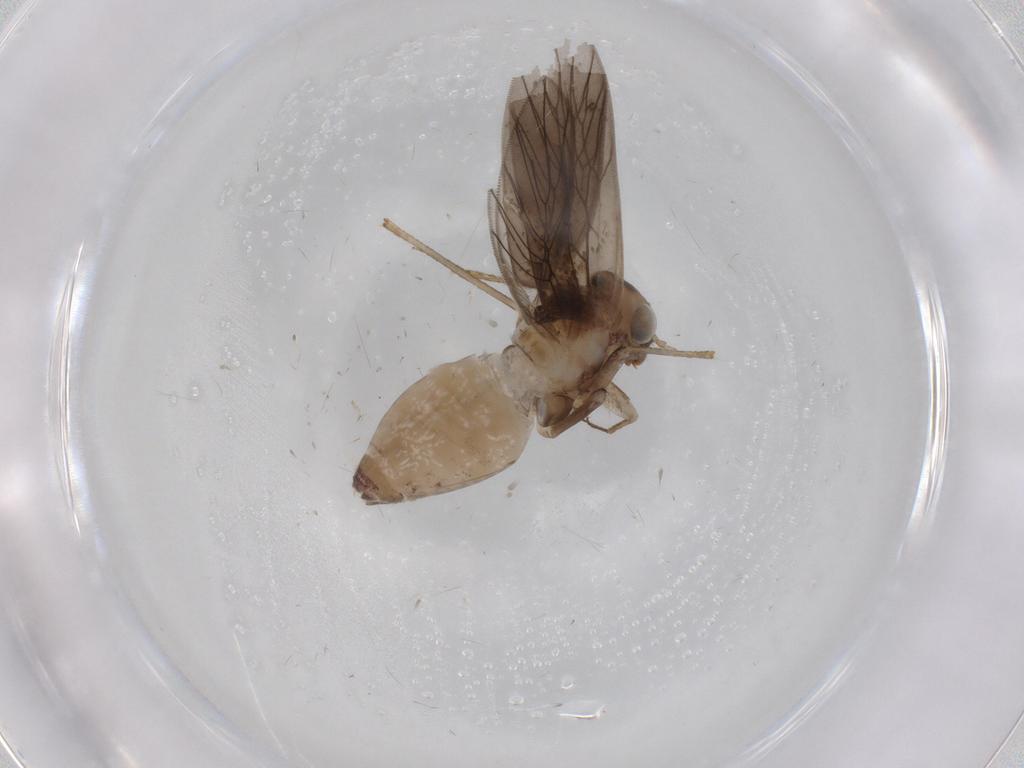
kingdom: Animalia
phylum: Arthropoda
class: Insecta
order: Psocodea
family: Lepidopsocidae
